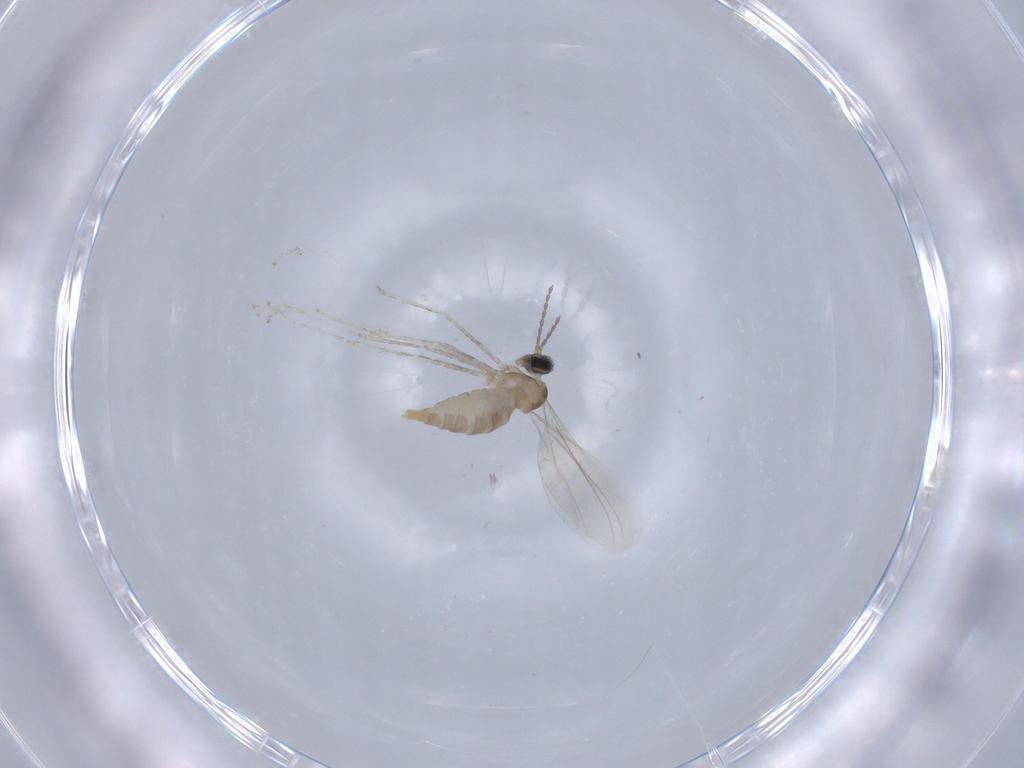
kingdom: Animalia
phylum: Arthropoda
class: Insecta
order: Diptera
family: Cecidomyiidae
